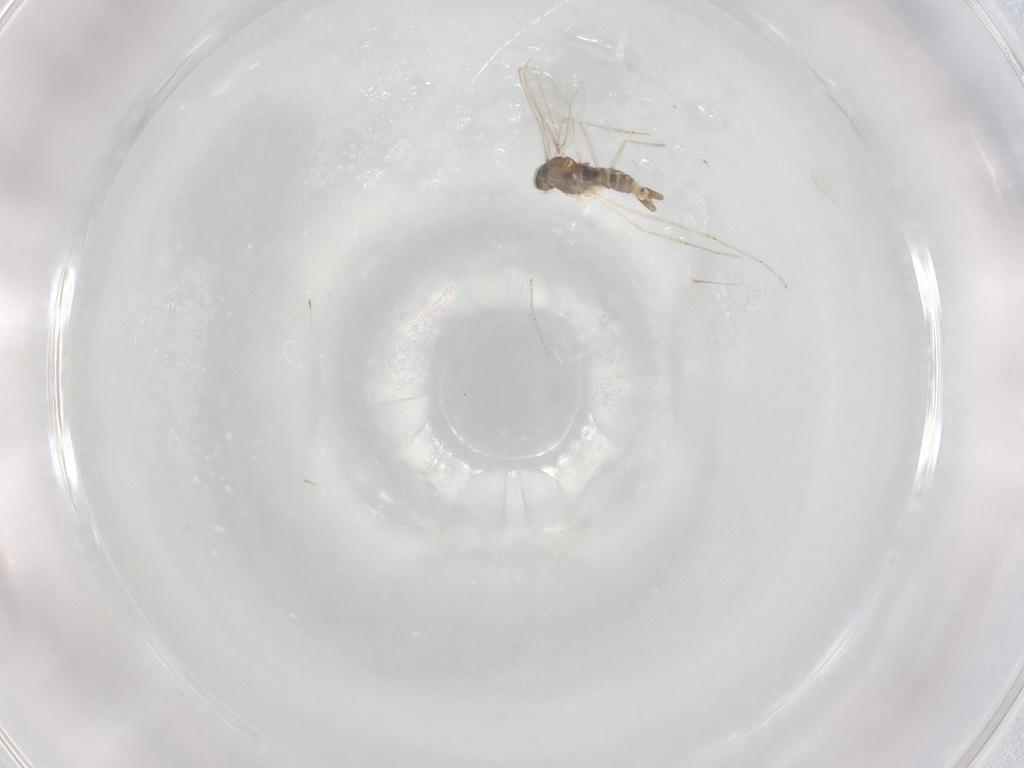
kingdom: Animalia
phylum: Arthropoda
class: Insecta
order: Diptera
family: Cecidomyiidae
